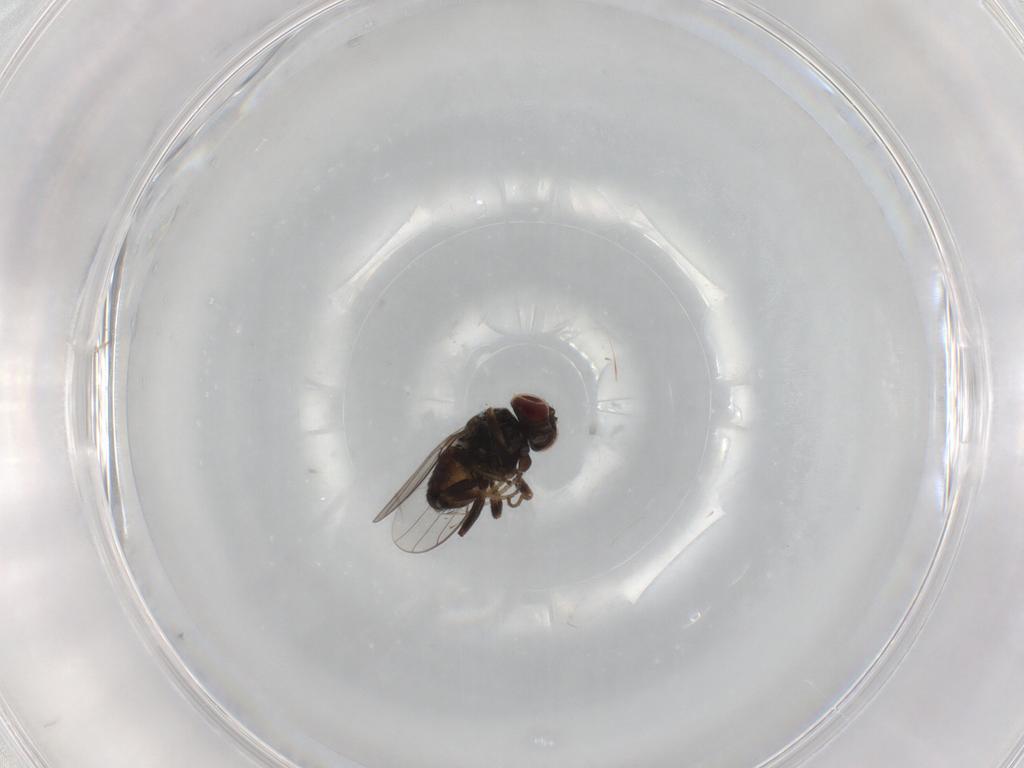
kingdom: Animalia
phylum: Arthropoda
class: Insecta
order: Diptera
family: Chloropidae
